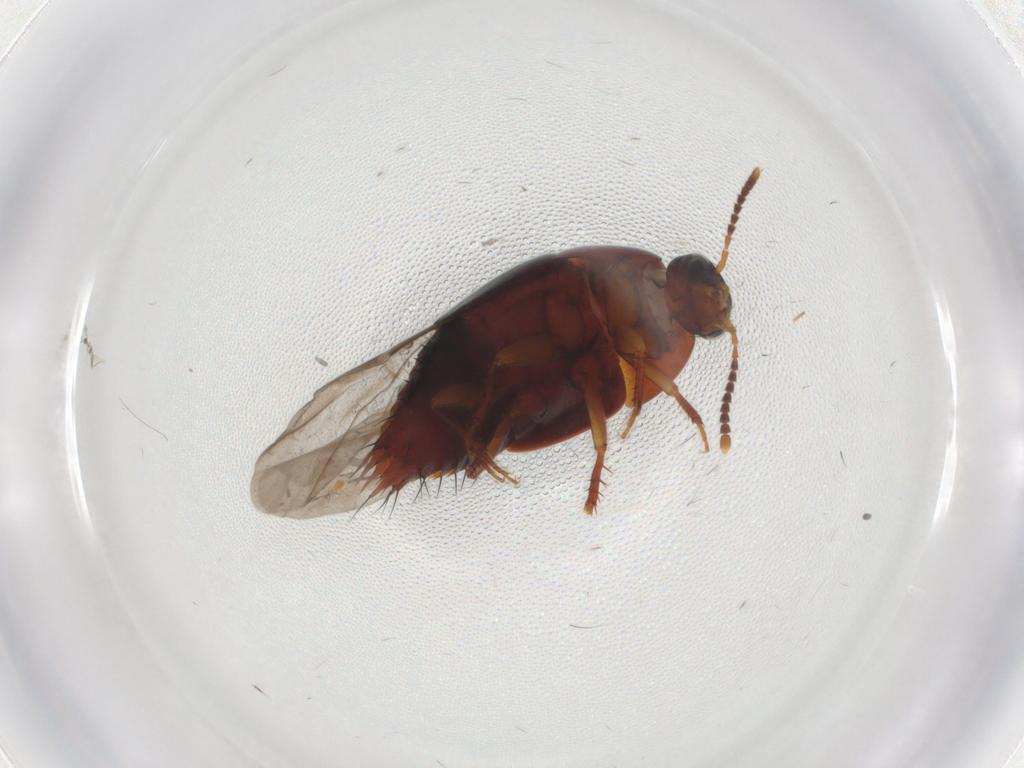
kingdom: Animalia
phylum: Arthropoda
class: Insecta
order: Coleoptera
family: Staphylinidae
